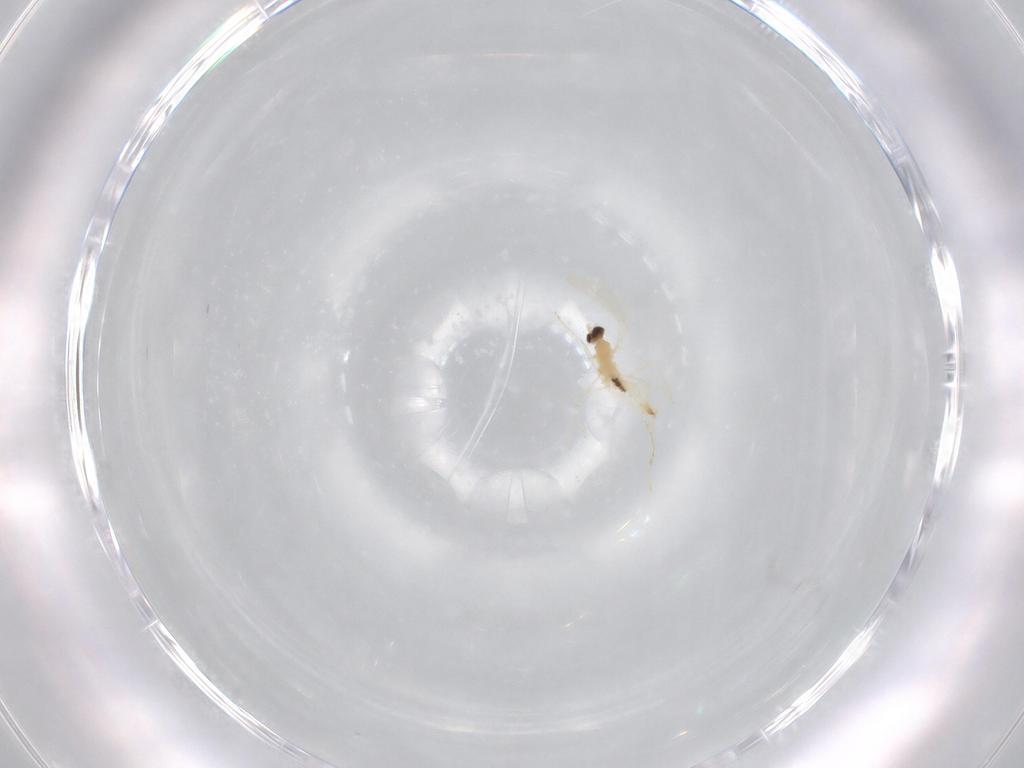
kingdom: Animalia
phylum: Arthropoda
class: Insecta
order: Diptera
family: Cecidomyiidae
